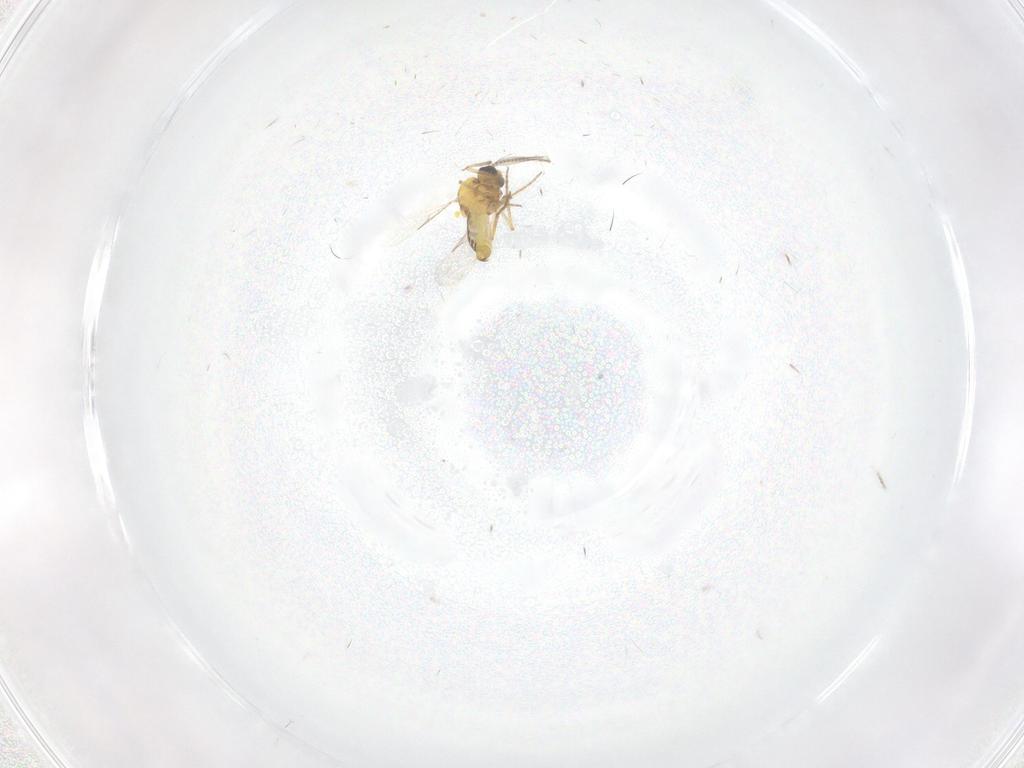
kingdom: Animalia
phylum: Arthropoda
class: Insecta
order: Diptera
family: Ceratopogonidae
